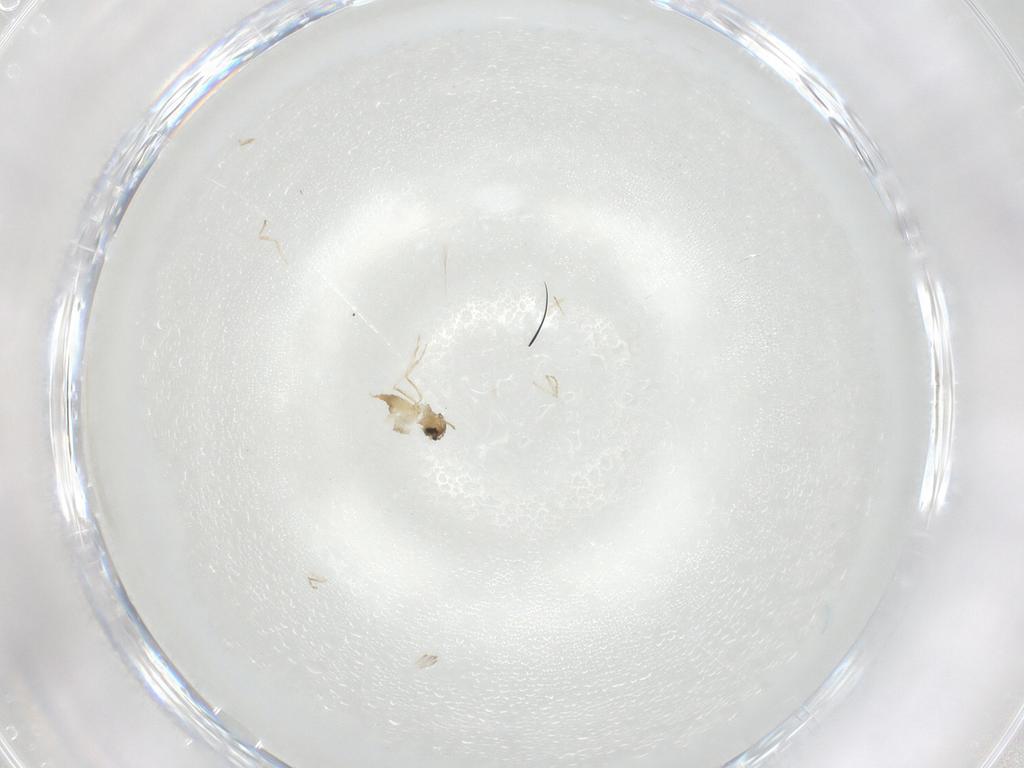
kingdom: Animalia
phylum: Arthropoda
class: Insecta
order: Diptera
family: Cecidomyiidae
